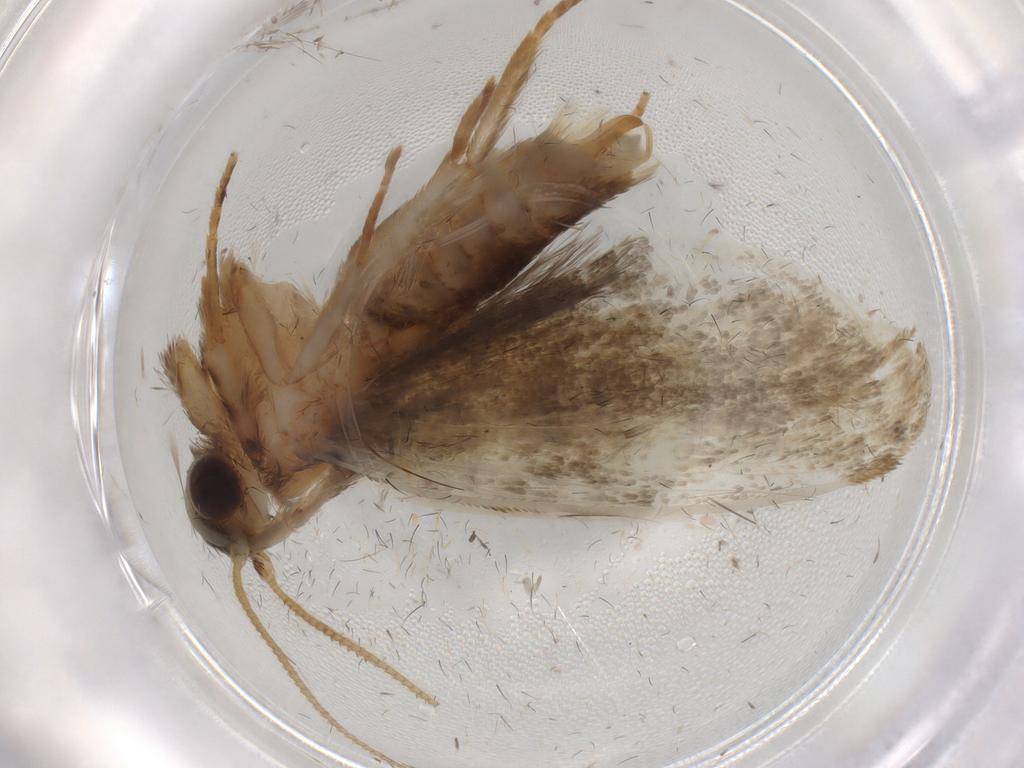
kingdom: Animalia
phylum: Arthropoda
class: Insecta
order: Lepidoptera
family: Tineidae
